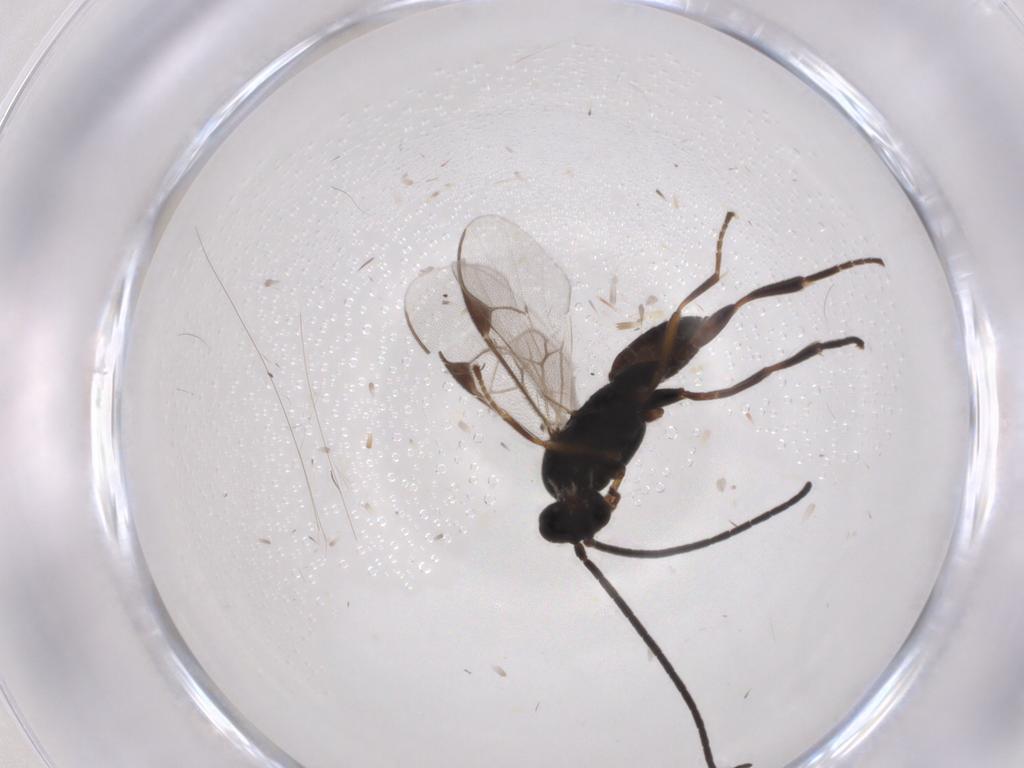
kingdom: Animalia
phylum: Arthropoda
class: Insecta
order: Hymenoptera
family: Braconidae
